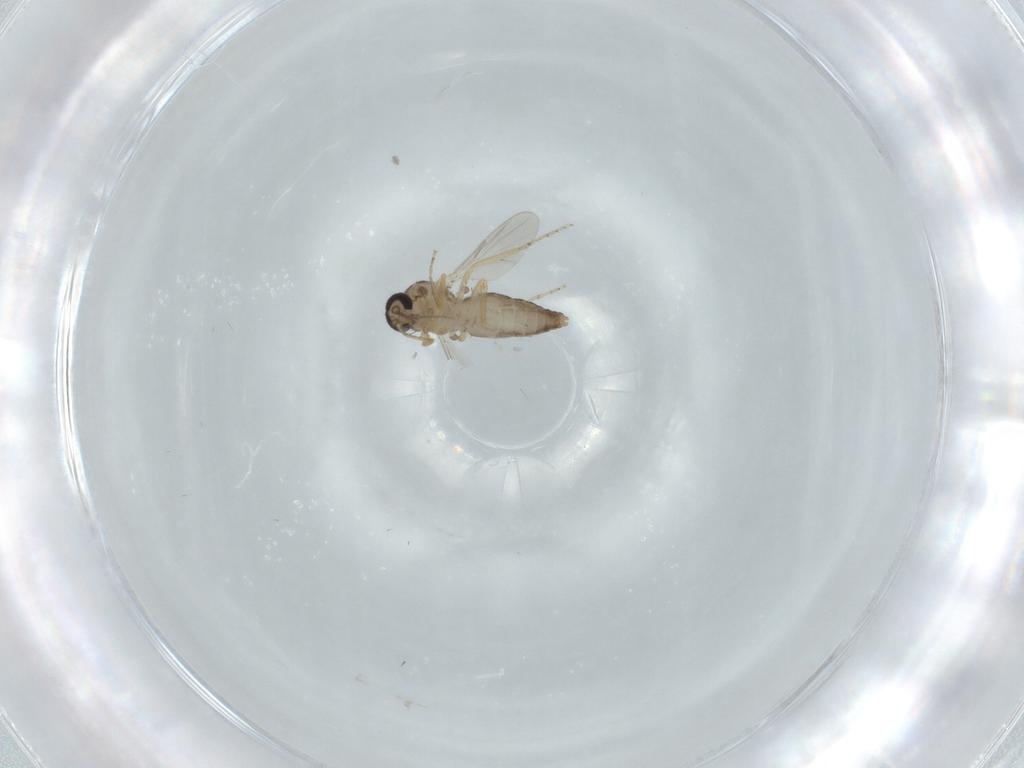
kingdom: Animalia
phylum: Arthropoda
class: Insecta
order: Diptera
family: Ceratopogonidae
